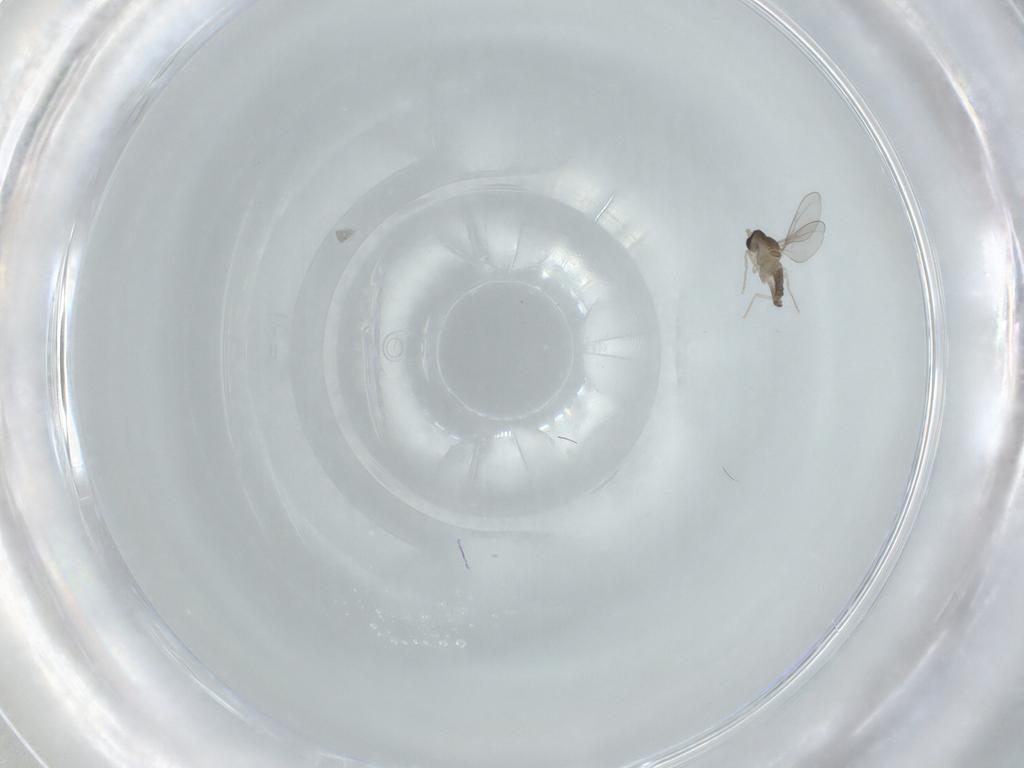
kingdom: Animalia
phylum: Arthropoda
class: Insecta
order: Diptera
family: Cecidomyiidae
